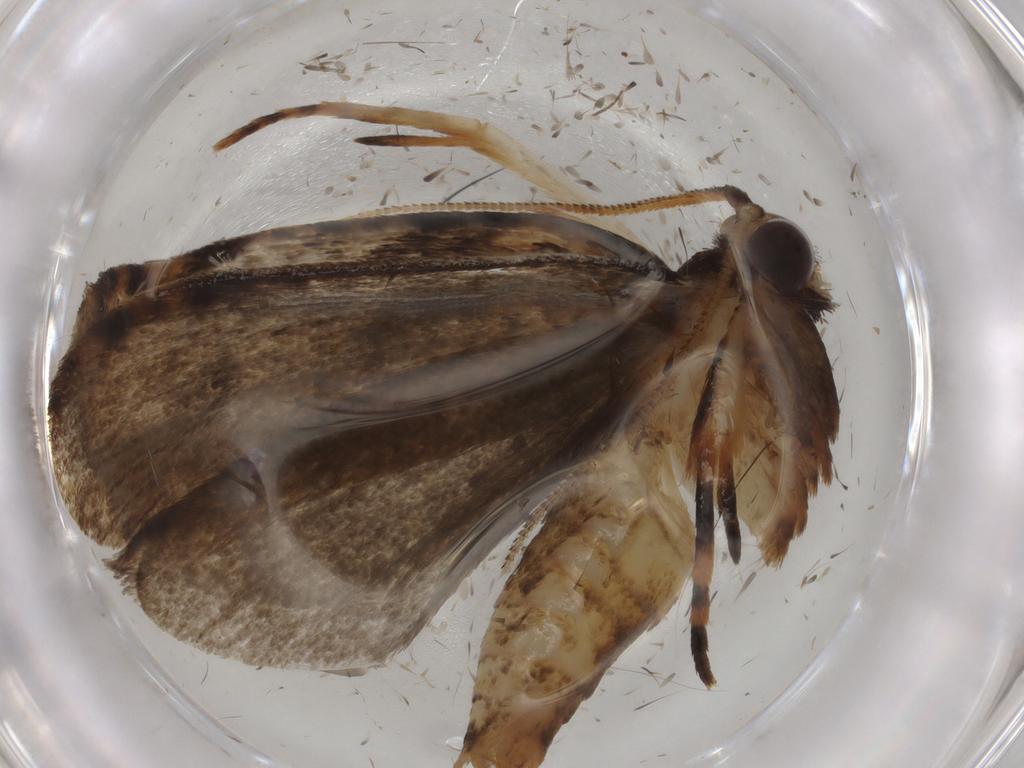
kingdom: Animalia
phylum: Arthropoda
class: Insecta
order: Lepidoptera
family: Tineidae
